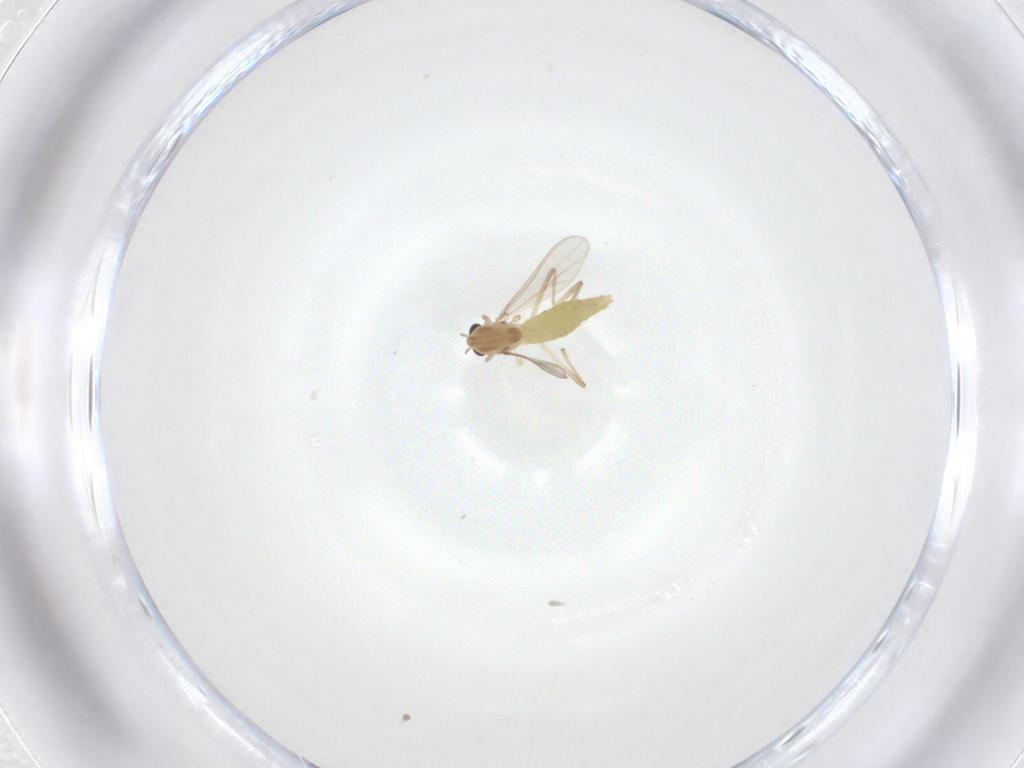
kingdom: Animalia
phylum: Arthropoda
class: Insecta
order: Diptera
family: Chironomidae
